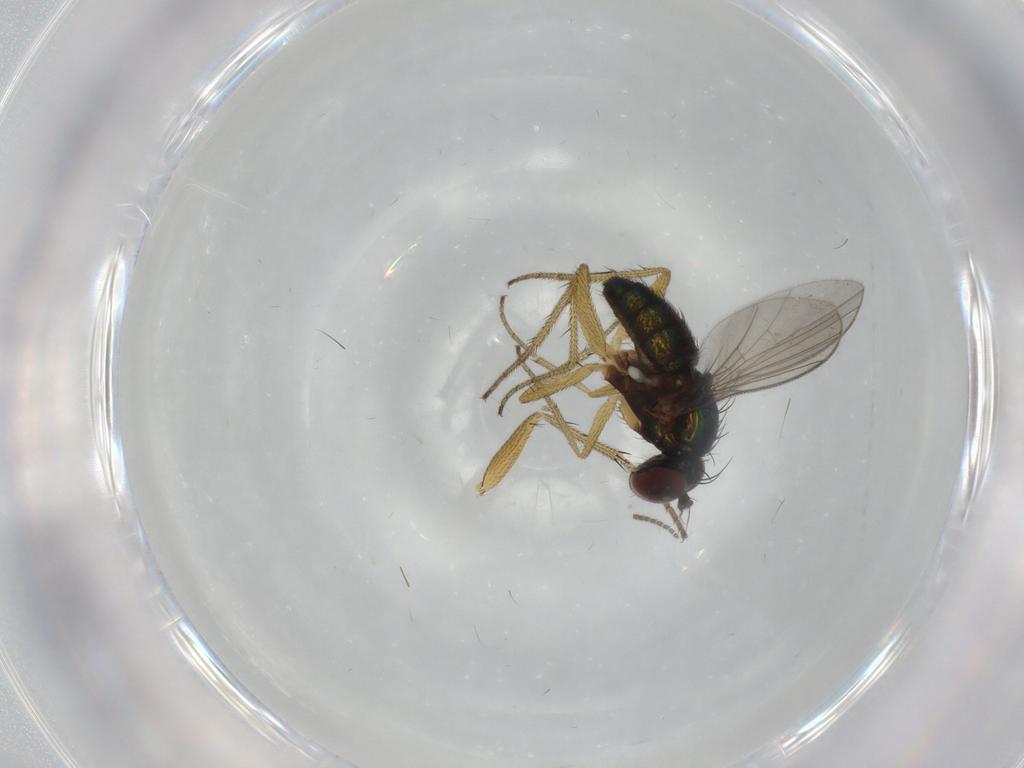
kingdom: Animalia
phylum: Arthropoda
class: Insecta
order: Diptera
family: Dolichopodidae
